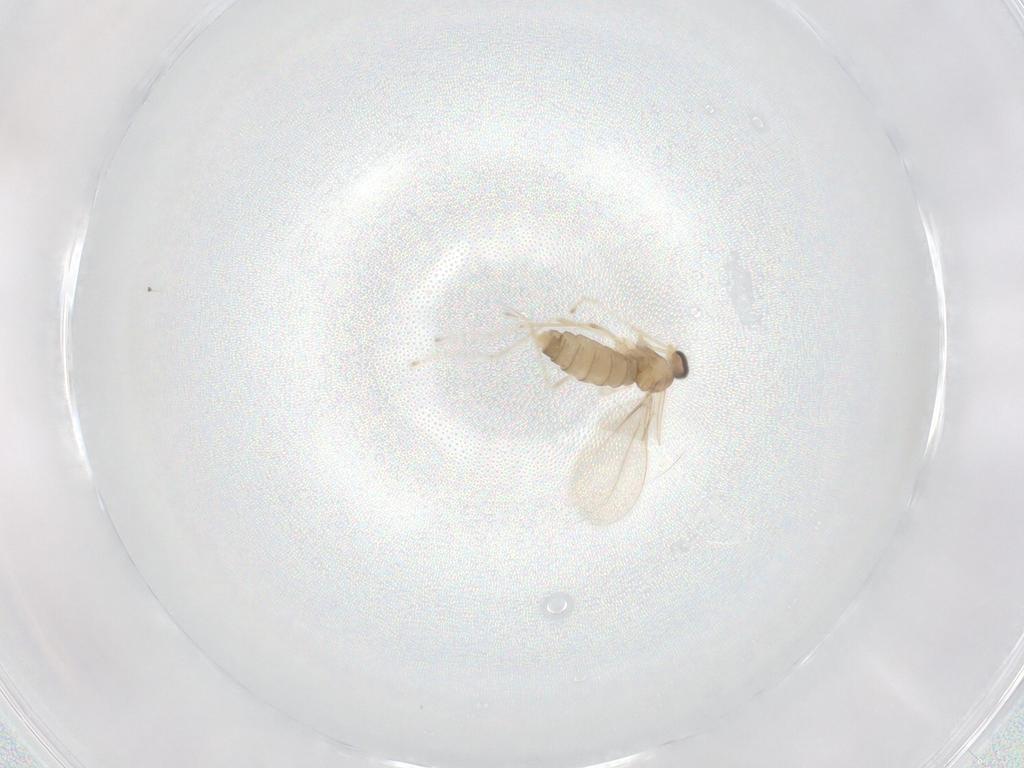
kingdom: Animalia
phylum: Arthropoda
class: Insecta
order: Diptera
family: Cecidomyiidae
